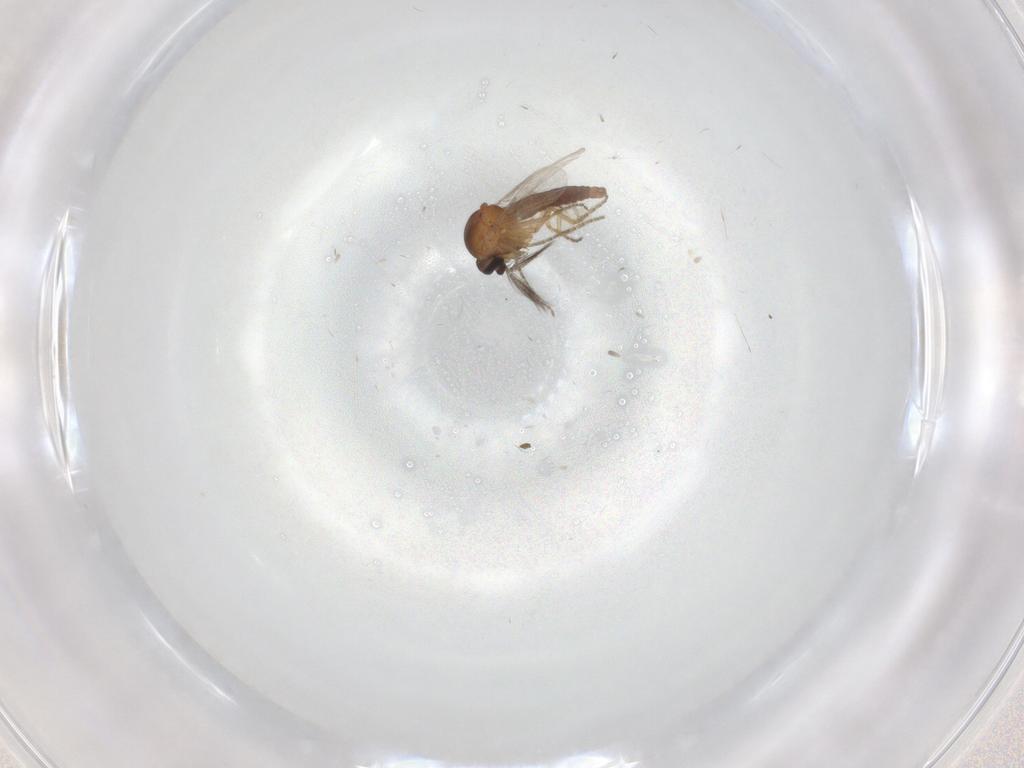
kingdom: Animalia
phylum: Arthropoda
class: Insecta
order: Diptera
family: Ceratopogonidae
